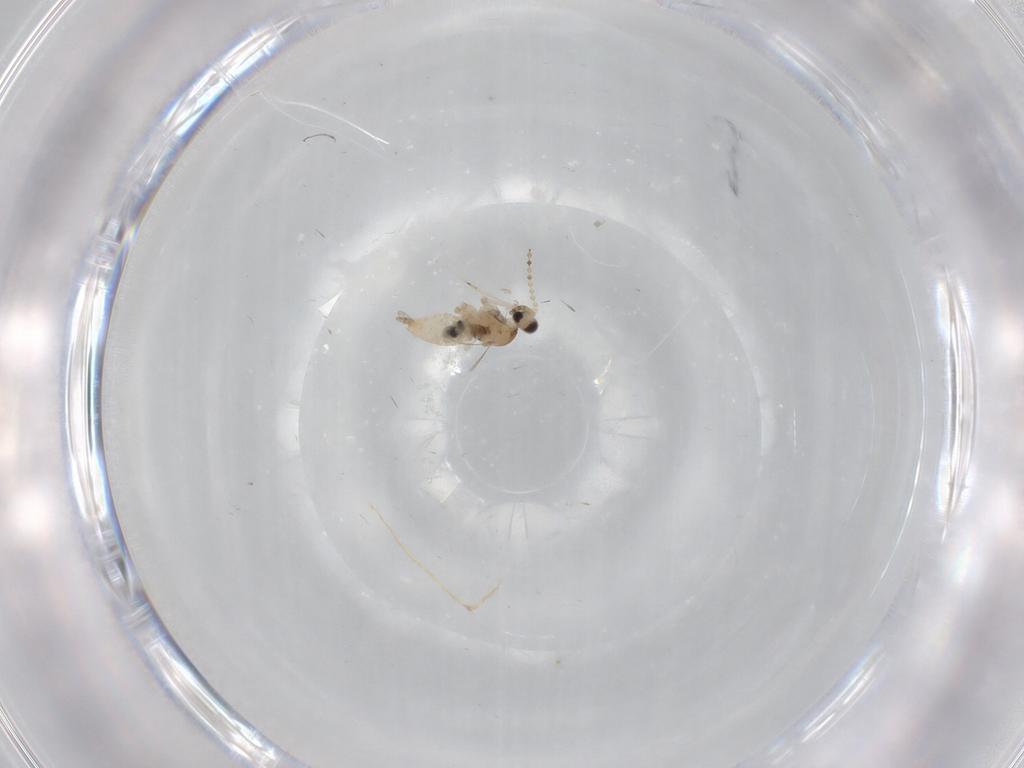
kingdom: Animalia
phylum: Arthropoda
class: Insecta
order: Diptera
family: Cecidomyiidae
